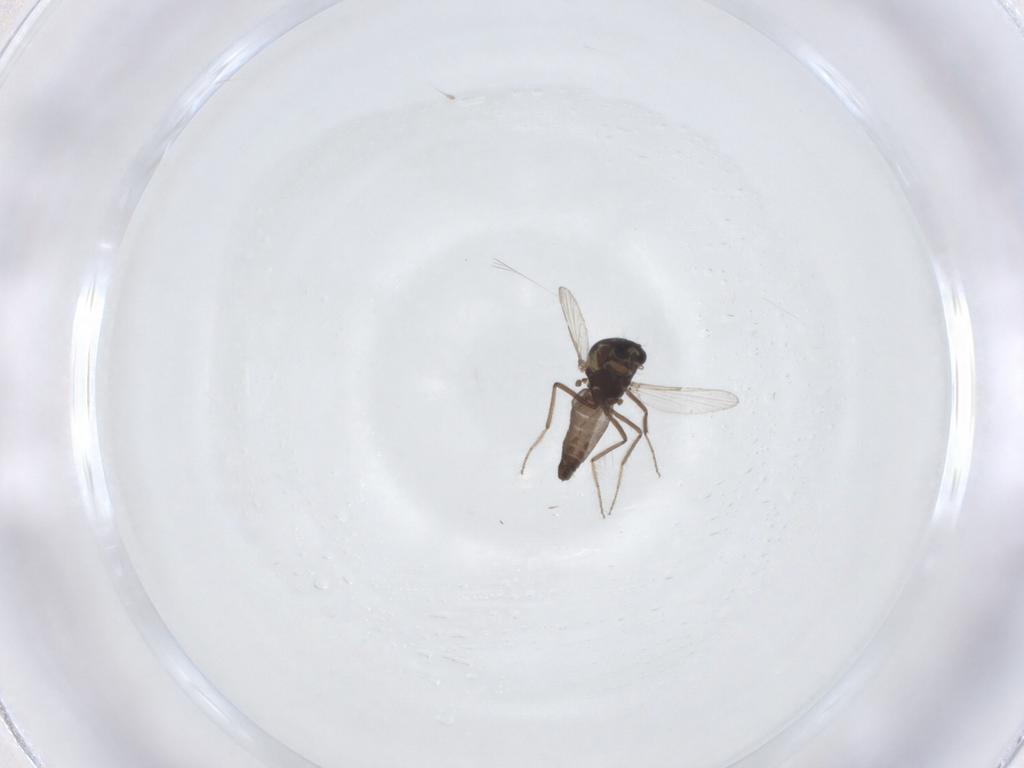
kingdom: Animalia
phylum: Arthropoda
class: Insecta
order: Diptera
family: Ceratopogonidae
